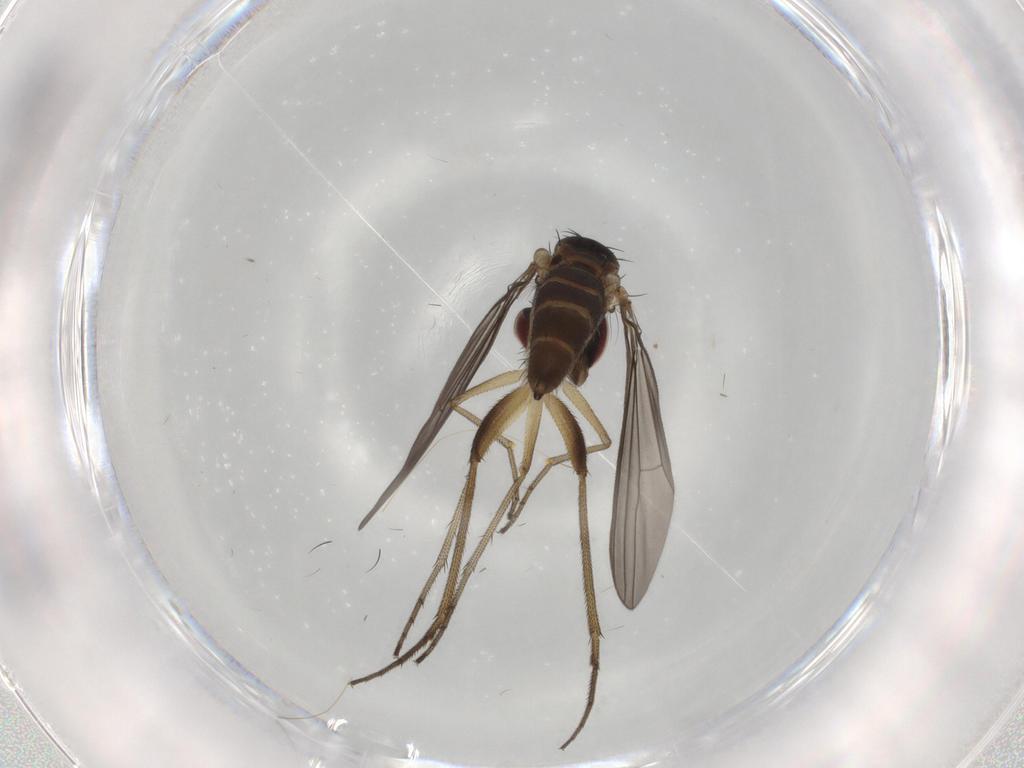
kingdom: Animalia
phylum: Arthropoda
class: Insecta
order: Diptera
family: Dolichopodidae
